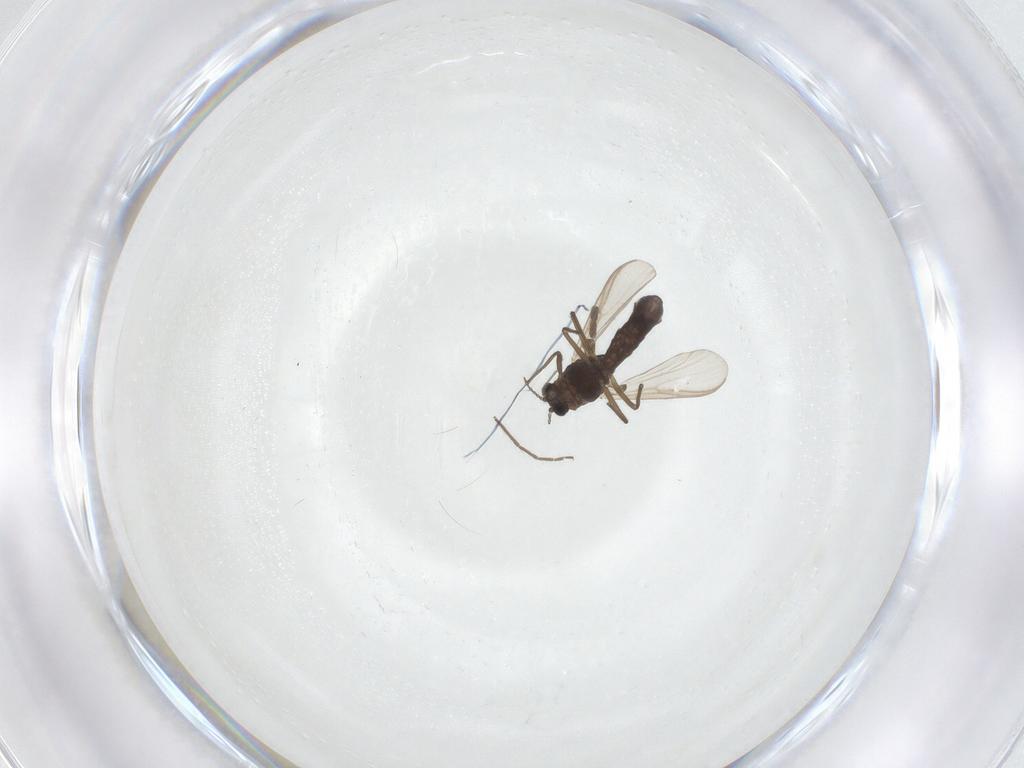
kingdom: Animalia
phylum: Arthropoda
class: Insecta
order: Diptera
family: Mycetophilidae
